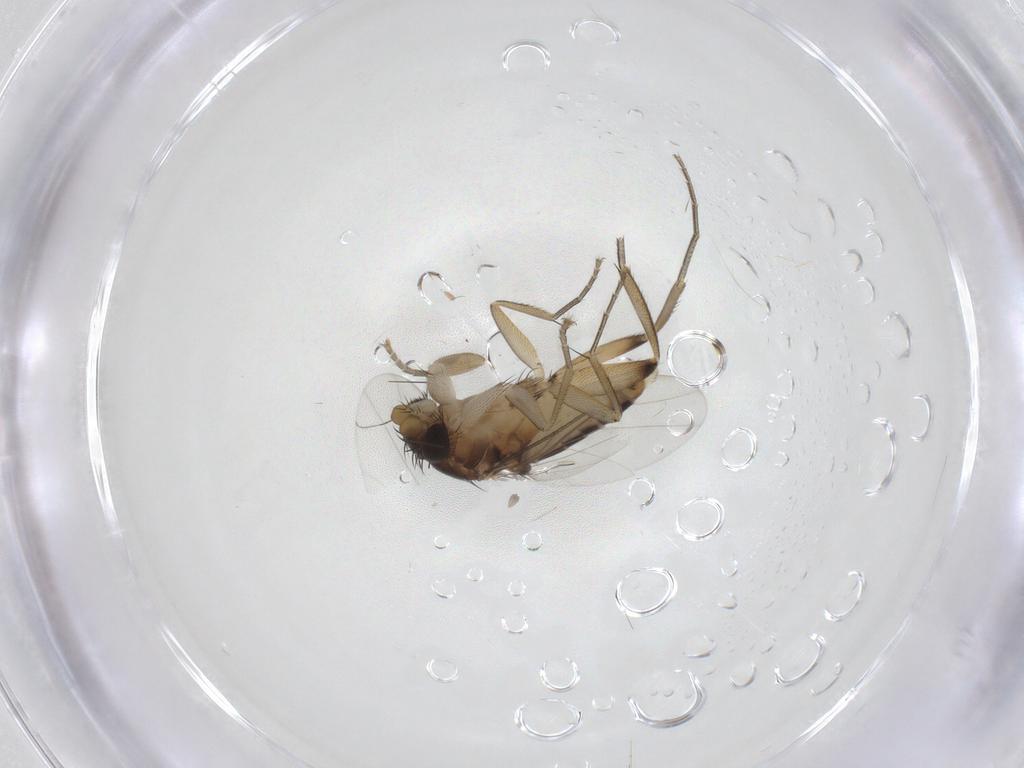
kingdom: Animalia
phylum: Arthropoda
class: Insecta
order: Diptera
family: Phoridae
